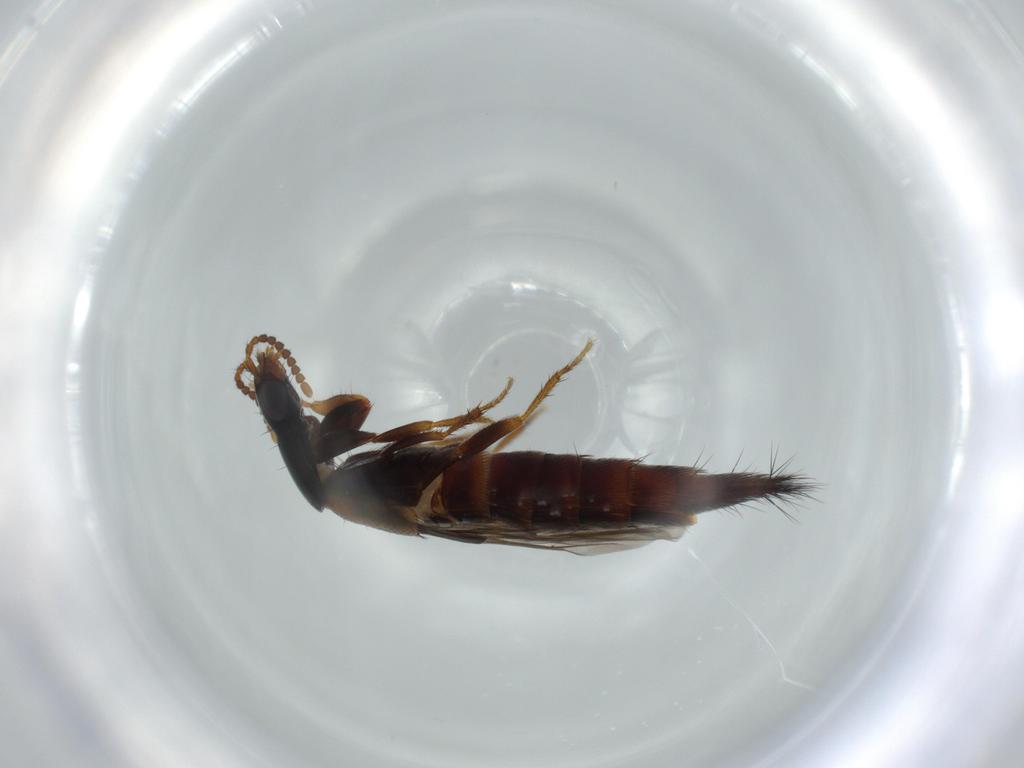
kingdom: Animalia
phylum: Arthropoda
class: Insecta
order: Coleoptera
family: Staphylinidae
